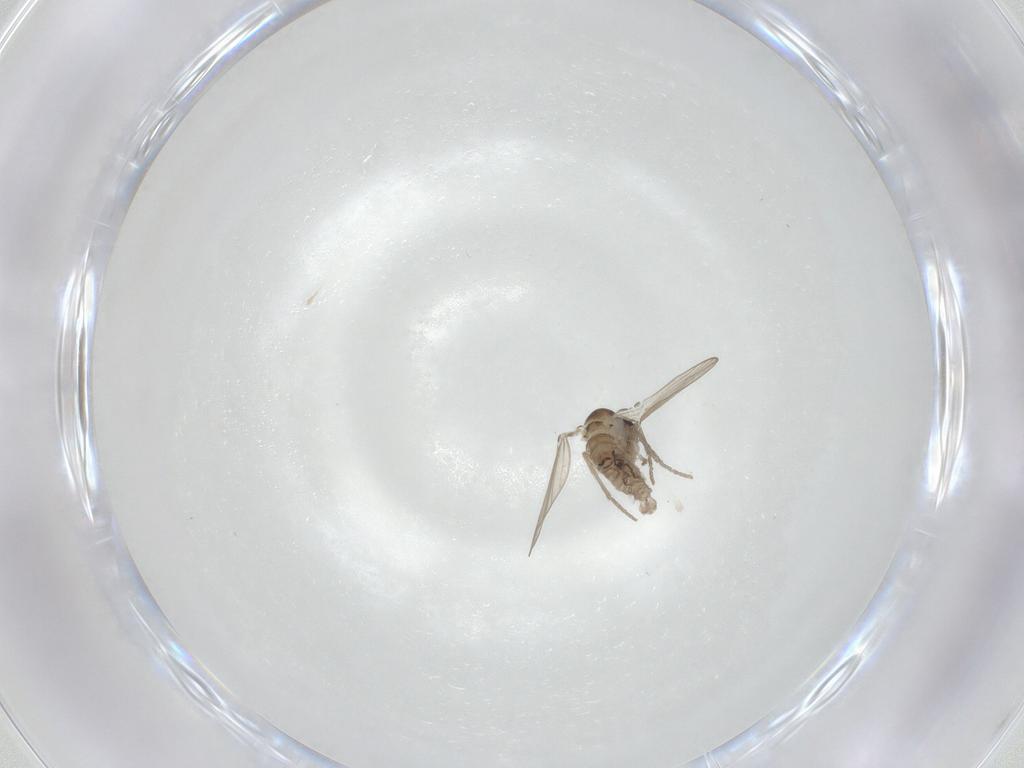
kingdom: Animalia
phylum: Arthropoda
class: Insecta
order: Diptera
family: Psychodidae
